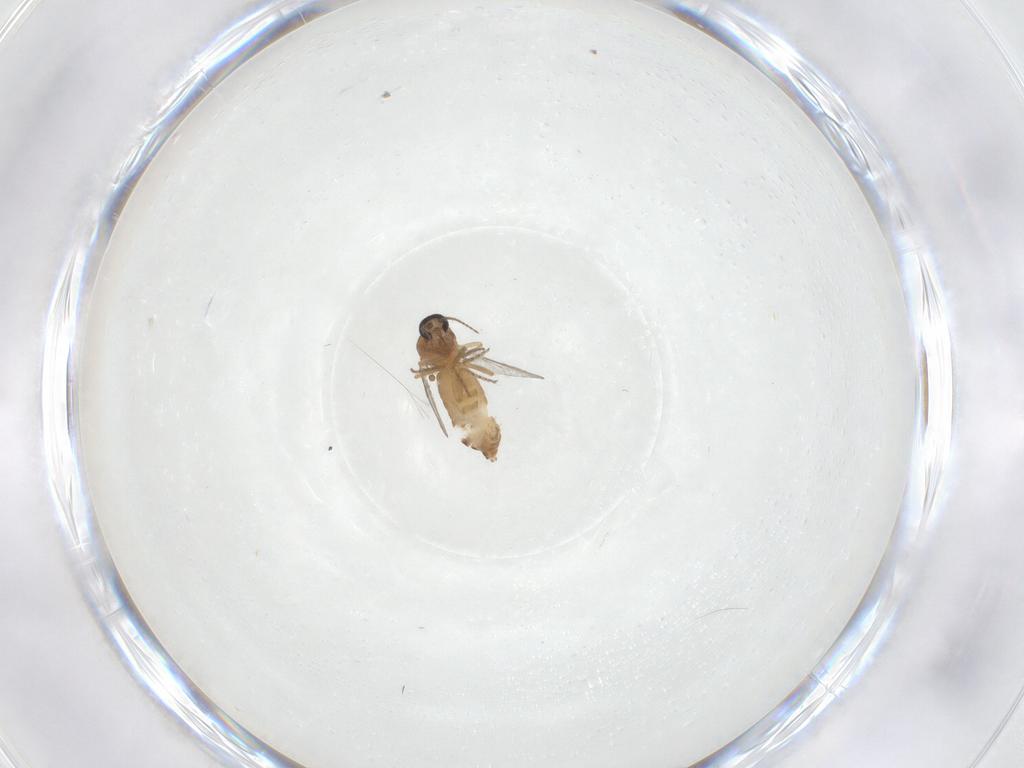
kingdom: Animalia
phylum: Arthropoda
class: Insecta
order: Diptera
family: Ceratopogonidae
